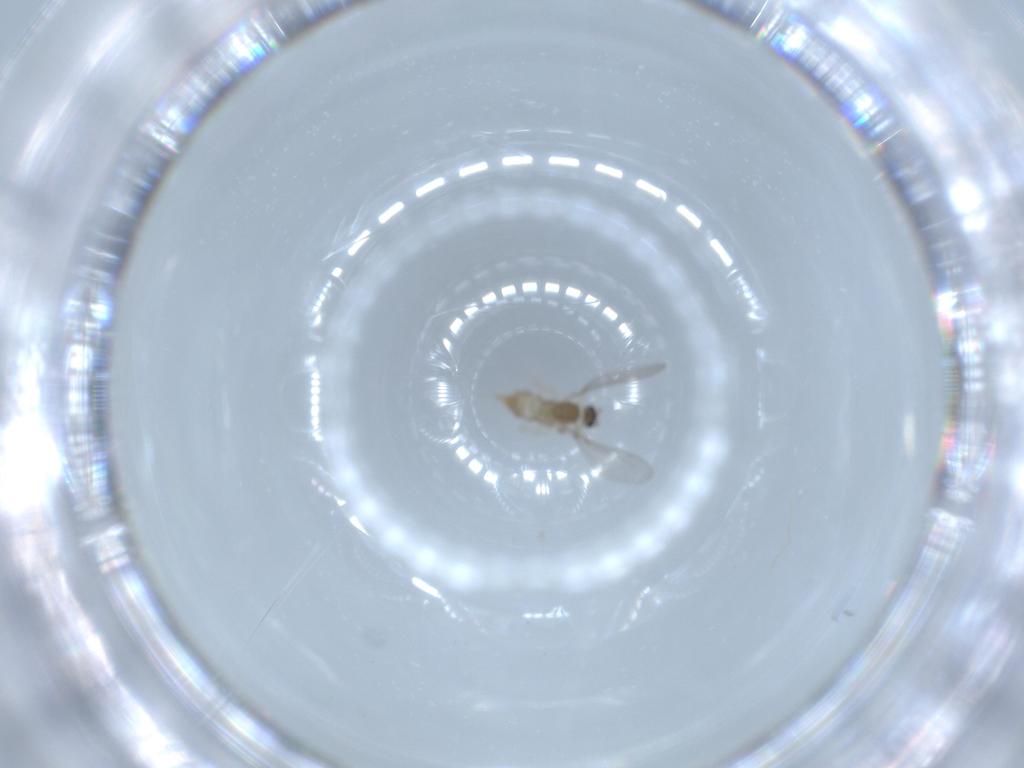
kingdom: Animalia
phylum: Arthropoda
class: Insecta
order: Diptera
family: Cecidomyiidae
